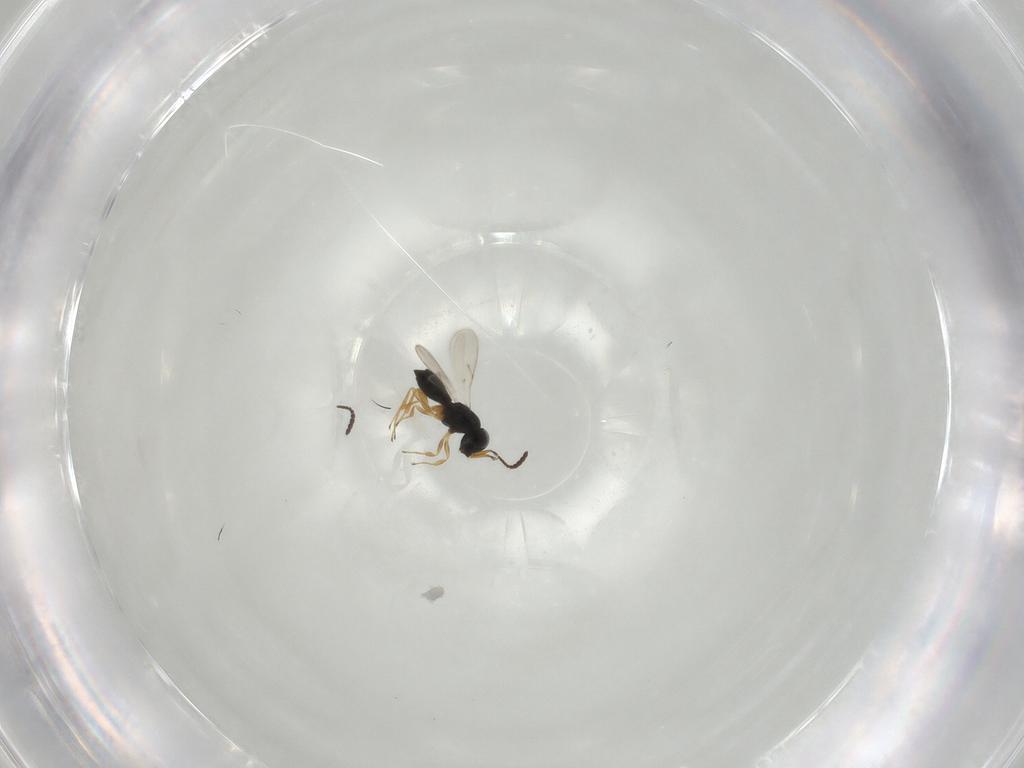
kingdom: Animalia
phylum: Arthropoda
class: Insecta
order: Hymenoptera
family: Scelionidae
